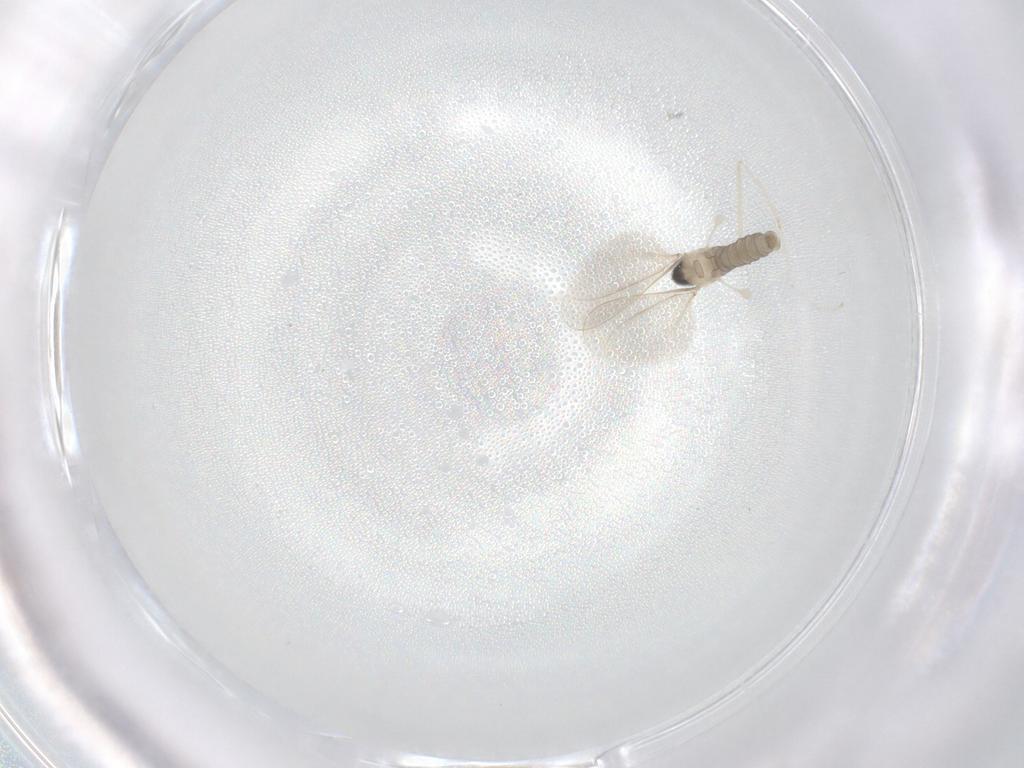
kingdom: Animalia
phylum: Arthropoda
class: Insecta
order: Diptera
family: Cecidomyiidae
